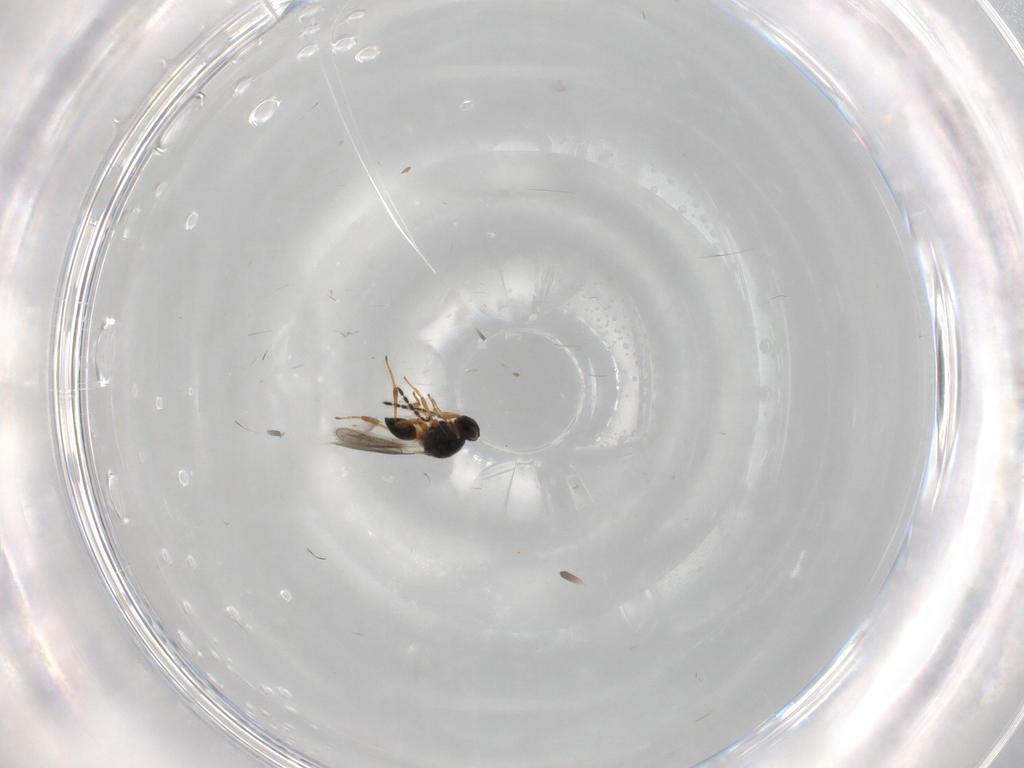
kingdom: Animalia
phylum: Arthropoda
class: Insecta
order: Hymenoptera
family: Platygastridae
